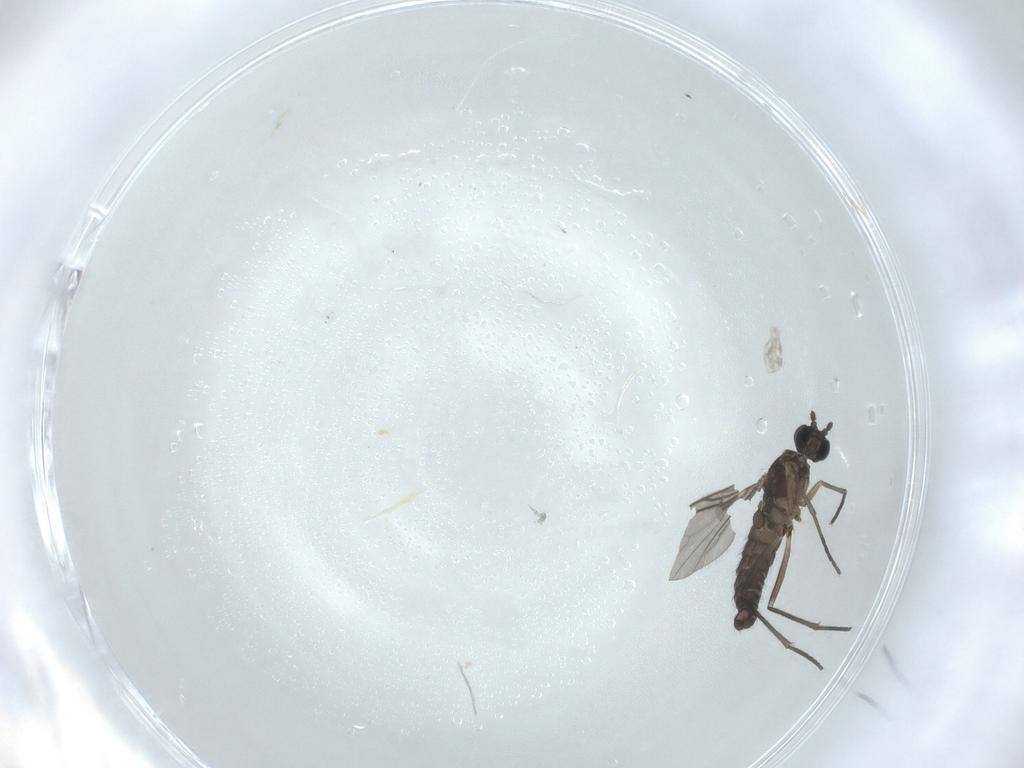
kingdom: Animalia
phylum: Arthropoda
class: Insecta
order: Diptera
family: Sciaridae
